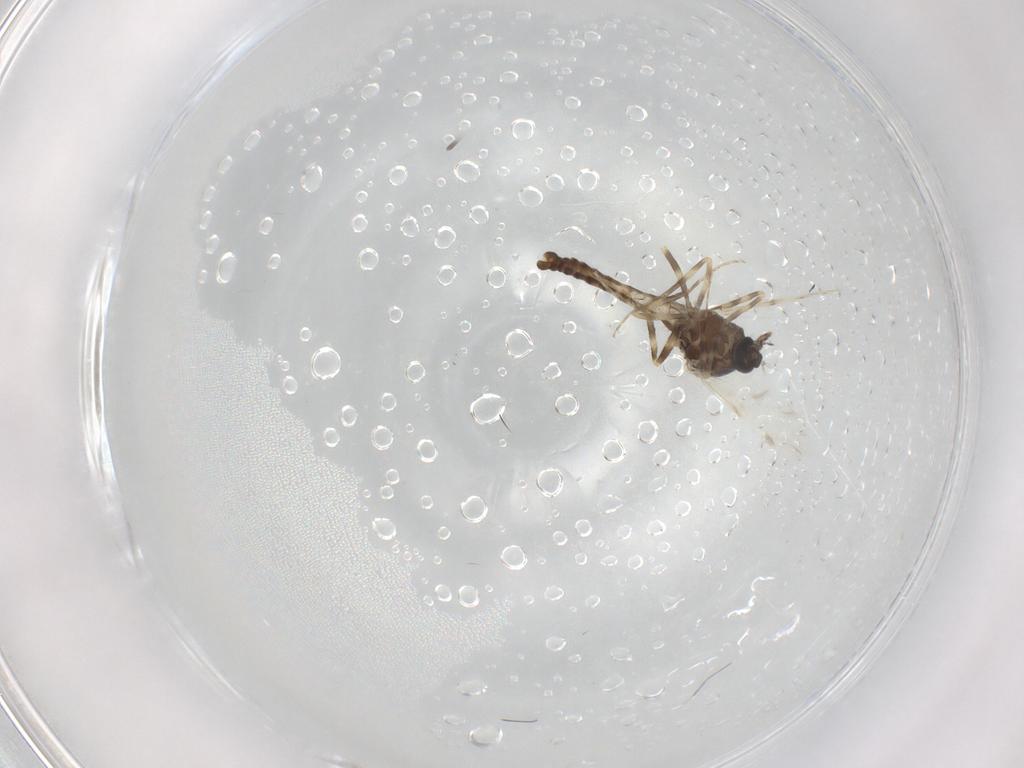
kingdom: Animalia
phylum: Arthropoda
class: Insecta
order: Diptera
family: Ceratopogonidae
